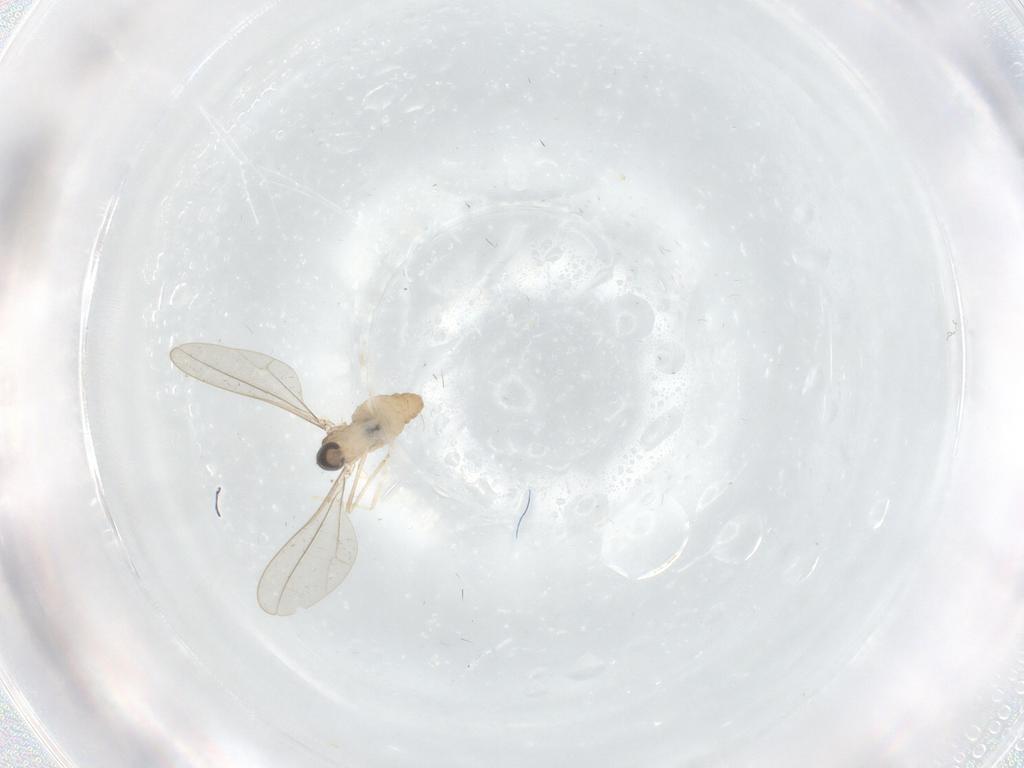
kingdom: Animalia
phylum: Arthropoda
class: Insecta
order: Diptera
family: Cecidomyiidae
